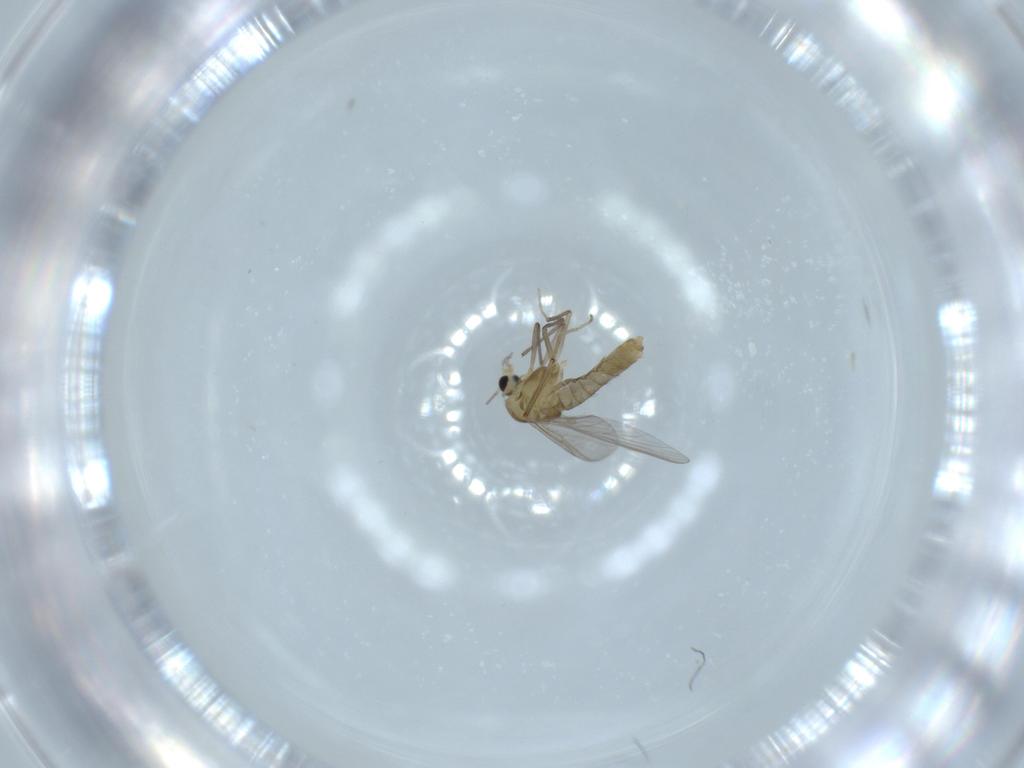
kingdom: Animalia
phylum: Arthropoda
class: Insecta
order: Diptera
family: Chironomidae
